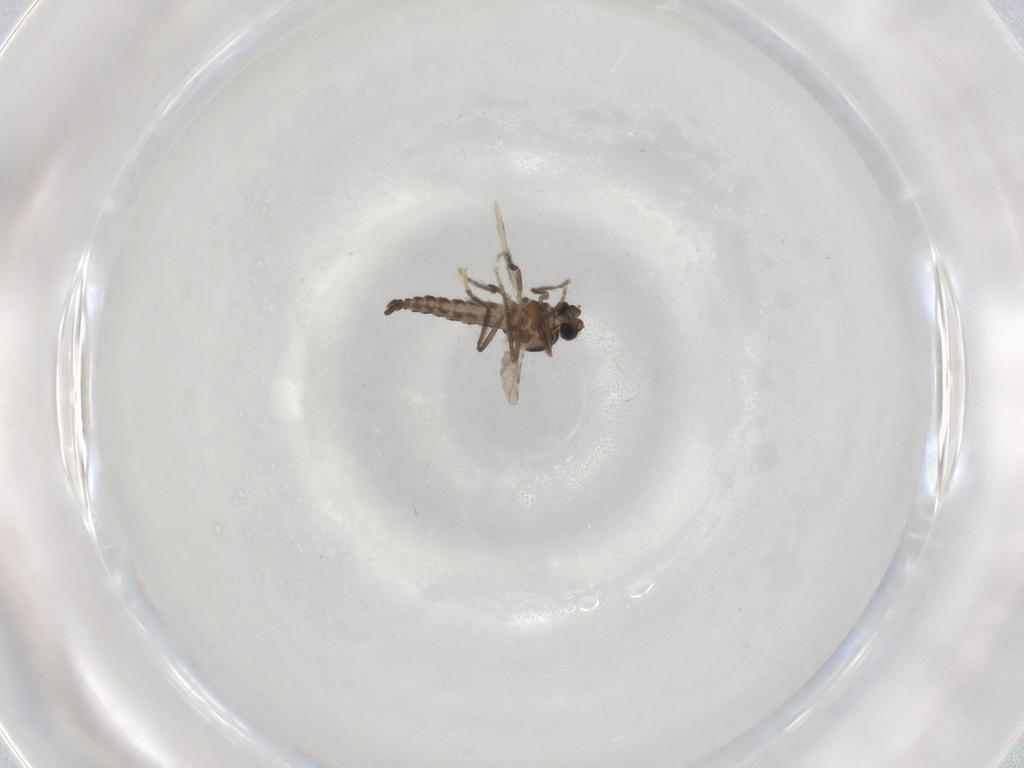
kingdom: Animalia
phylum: Arthropoda
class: Insecta
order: Diptera
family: Ceratopogonidae
